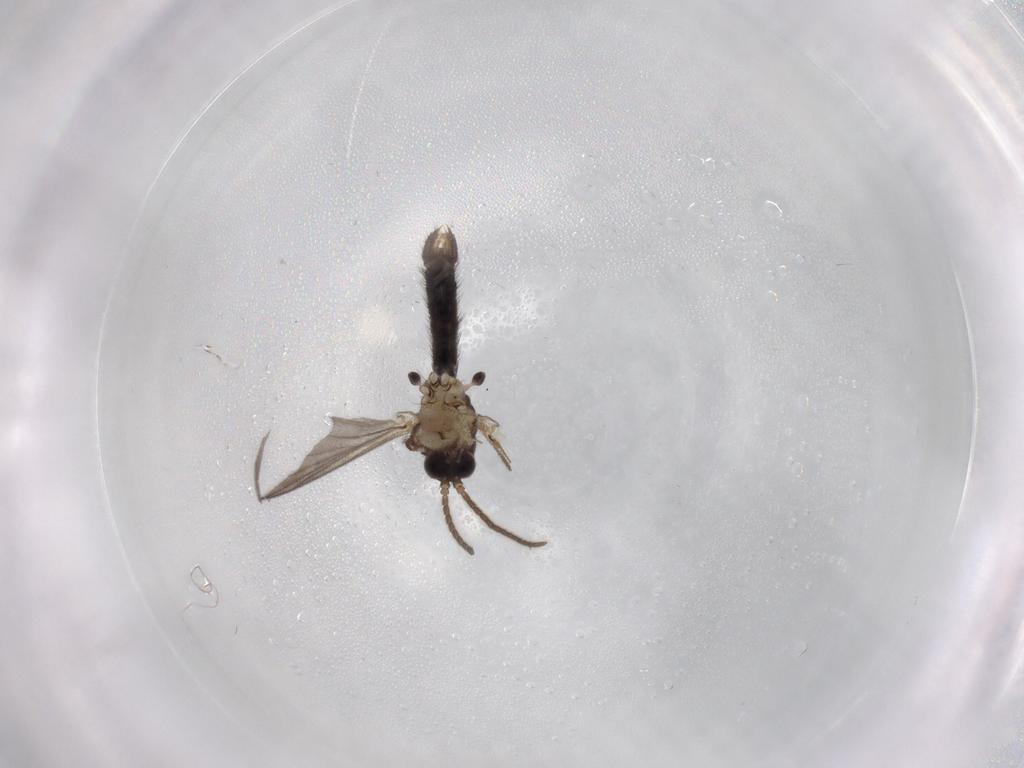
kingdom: Animalia
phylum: Arthropoda
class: Insecta
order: Diptera
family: Mycetophilidae
